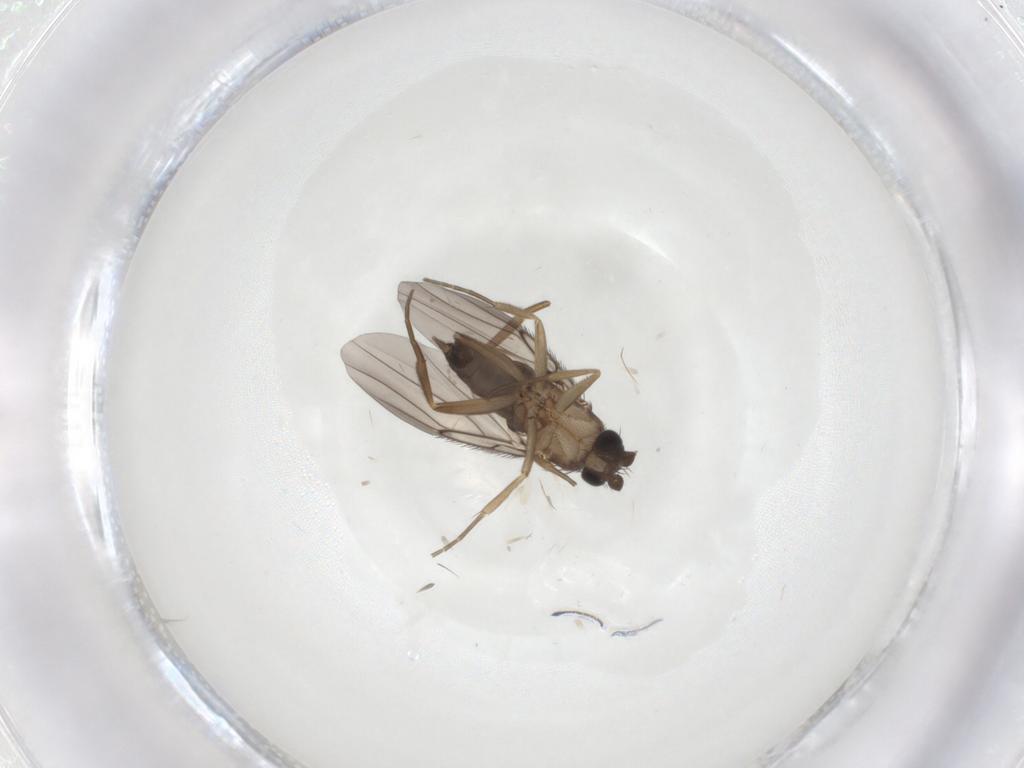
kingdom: Animalia
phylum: Arthropoda
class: Insecta
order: Diptera
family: Phoridae
